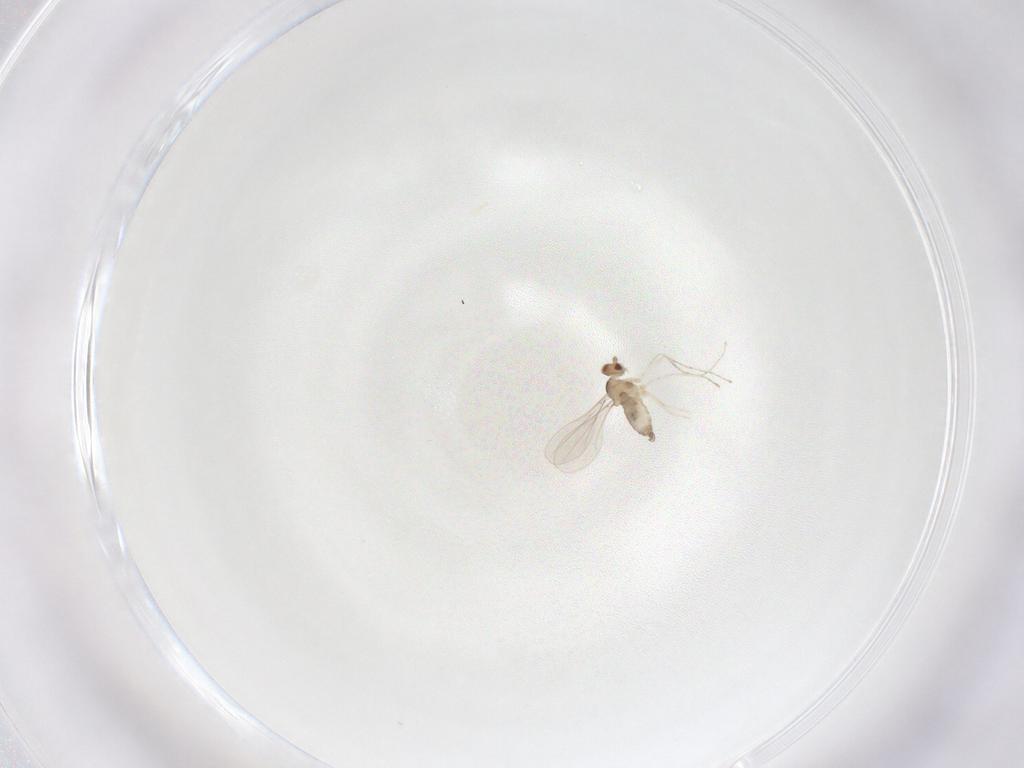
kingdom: Animalia
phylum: Arthropoda
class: Insecta
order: Diptera
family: Cecidomyiidae
